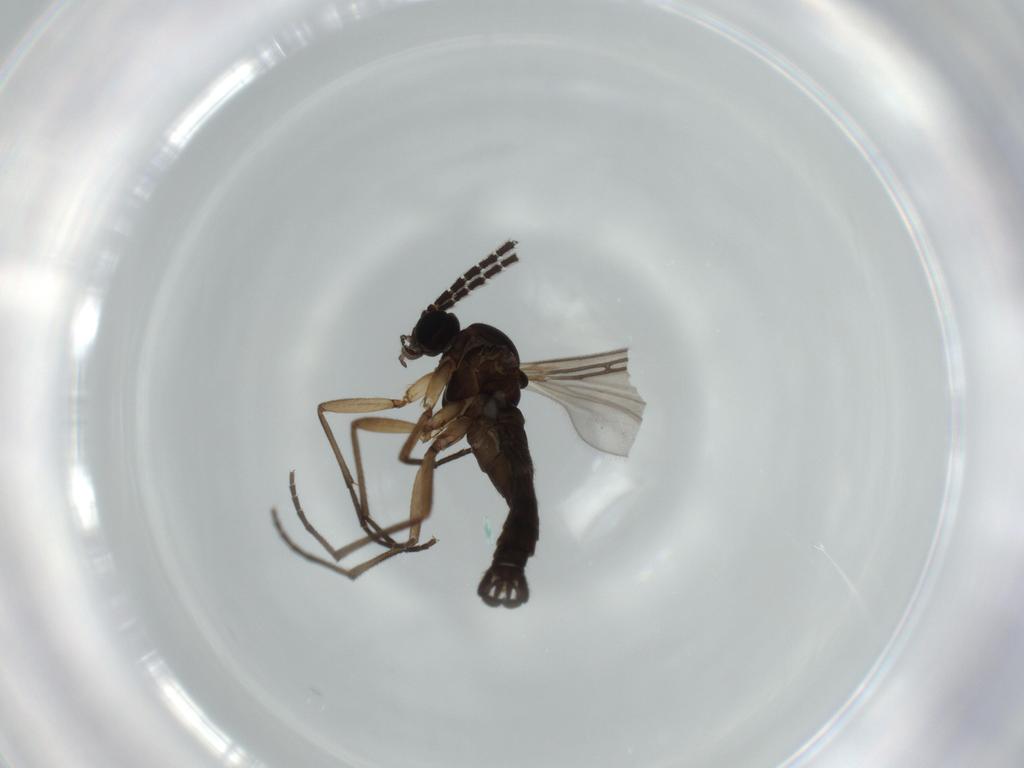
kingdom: Animalia
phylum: Arthropoda
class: Insecta
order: Diptera
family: Sciaridae
